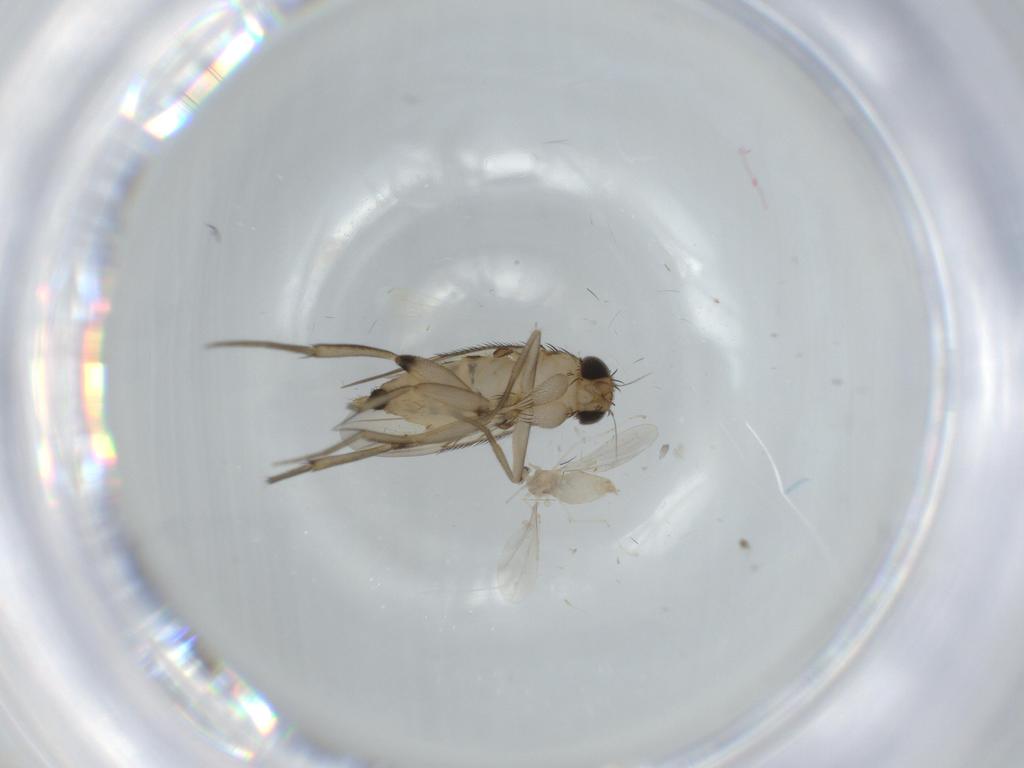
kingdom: Animalia
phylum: Arthropoda
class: Insecta
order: Diptera
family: Phoridae
